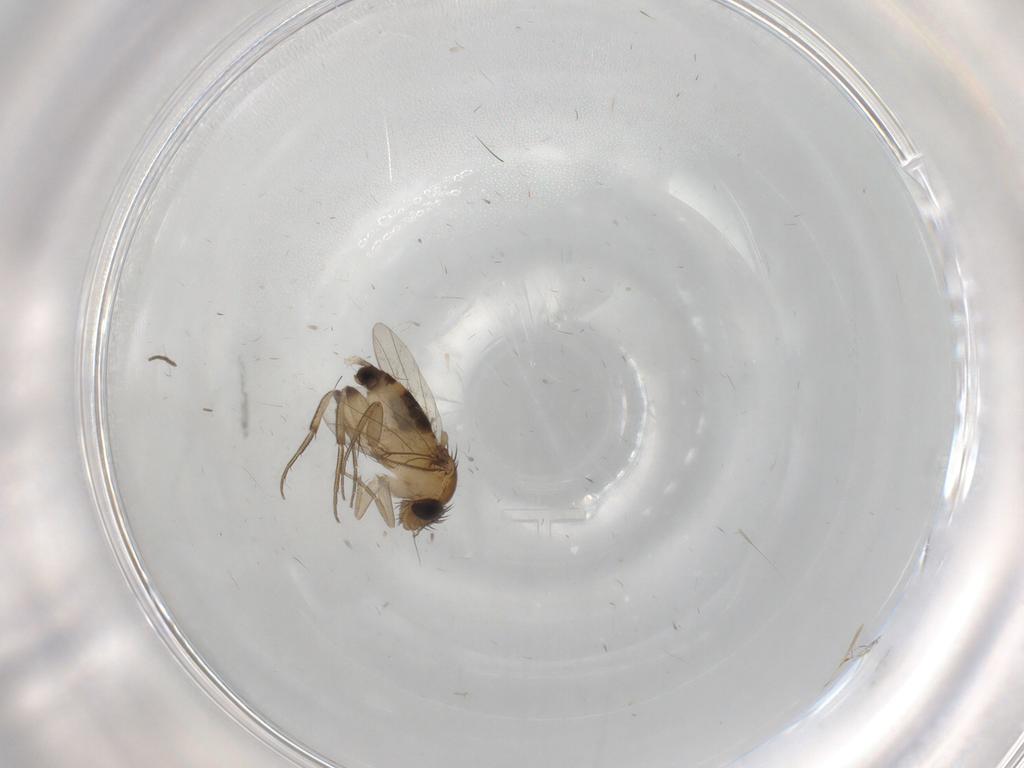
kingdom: Animalia
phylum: Arthropoda
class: Insecta
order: Diptera
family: Phoridae
